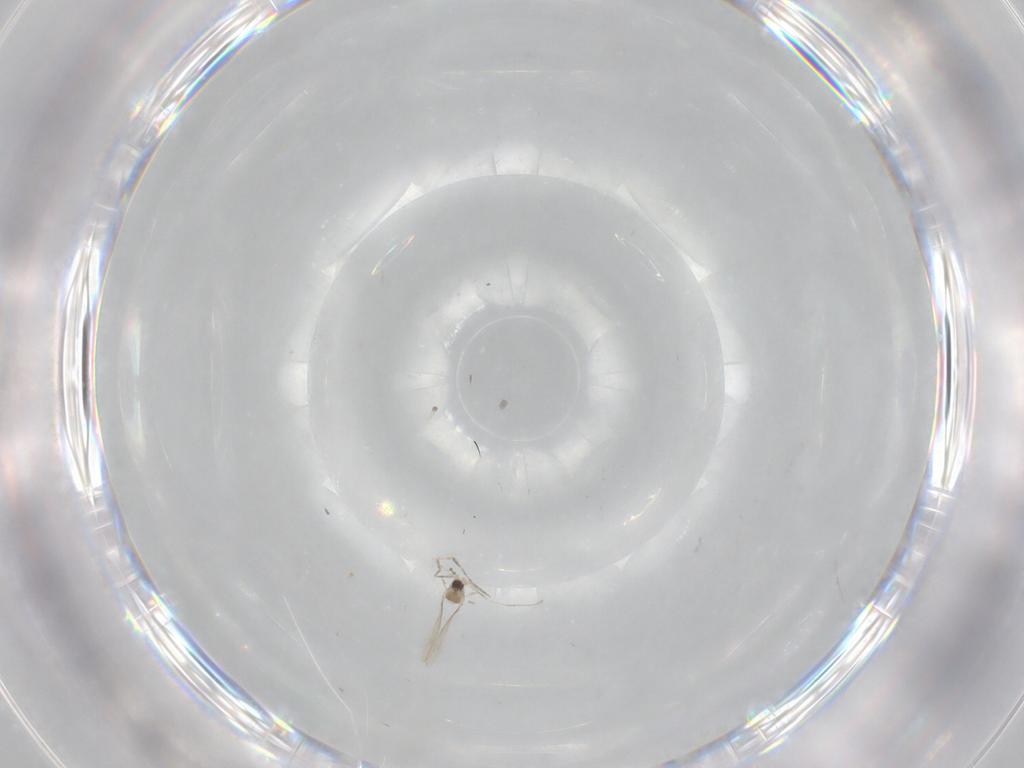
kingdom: Animalia
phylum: Arthropoda
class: Insecta
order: Diptera
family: Cecidomyiidae
